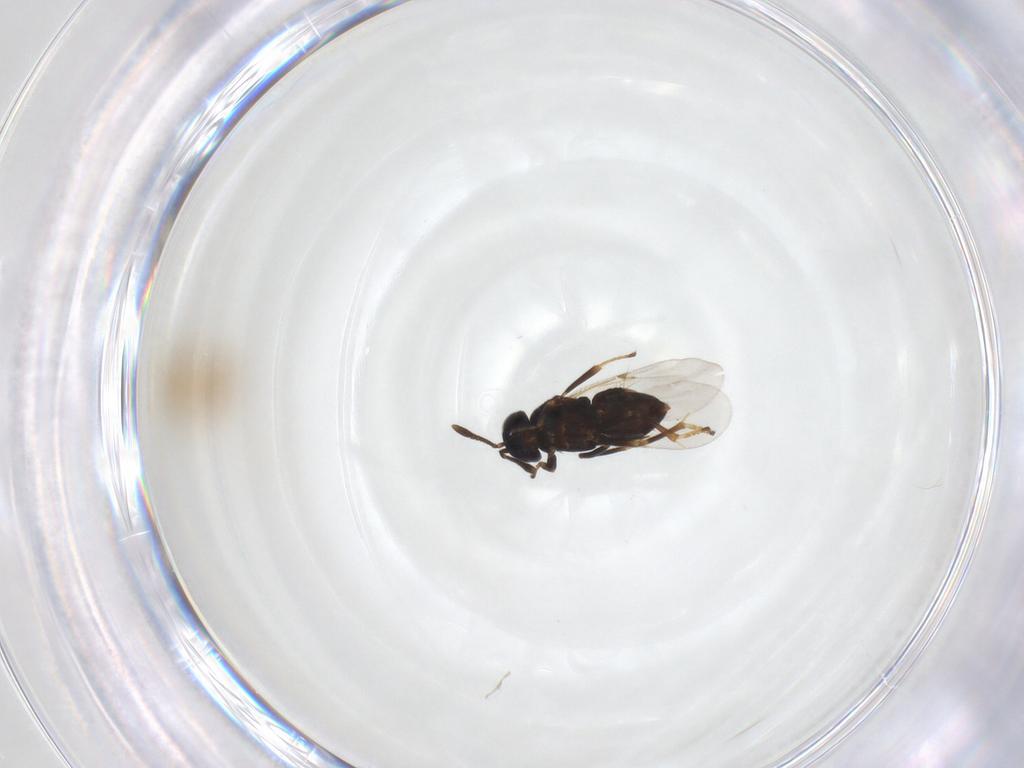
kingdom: Animalia
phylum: Arthropoda
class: Insecta
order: Hymenoptera
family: Encyrtidae
